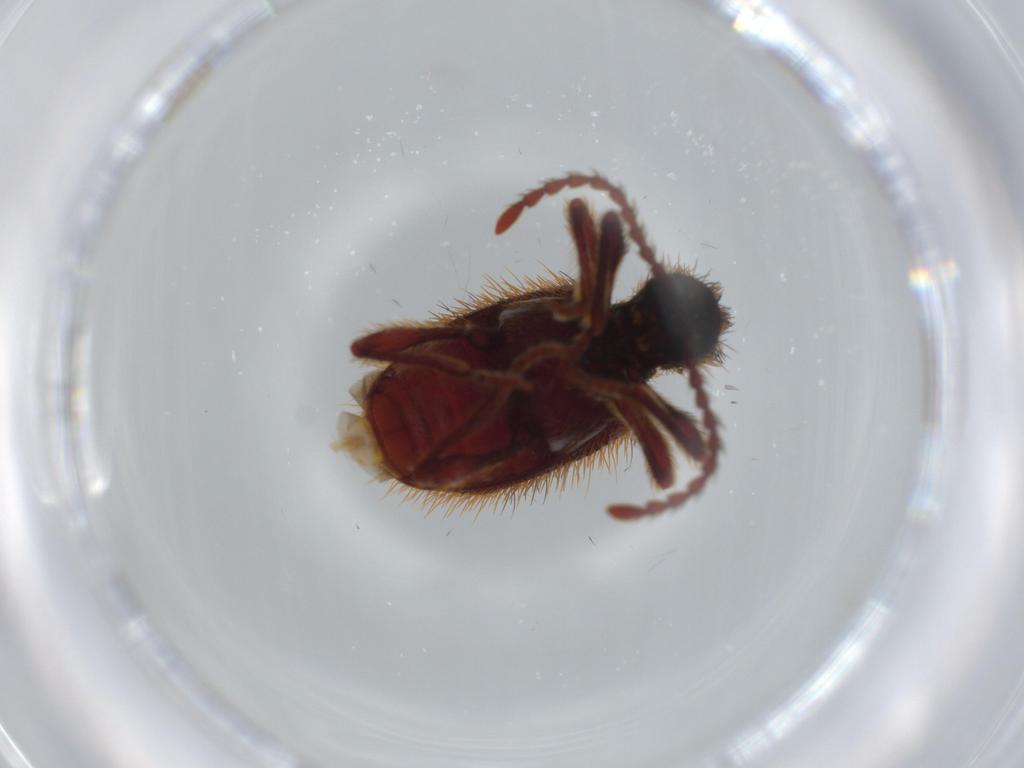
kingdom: Animalia
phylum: Arthropoda
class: Insecta
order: Coleoptera
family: Ptinidae
